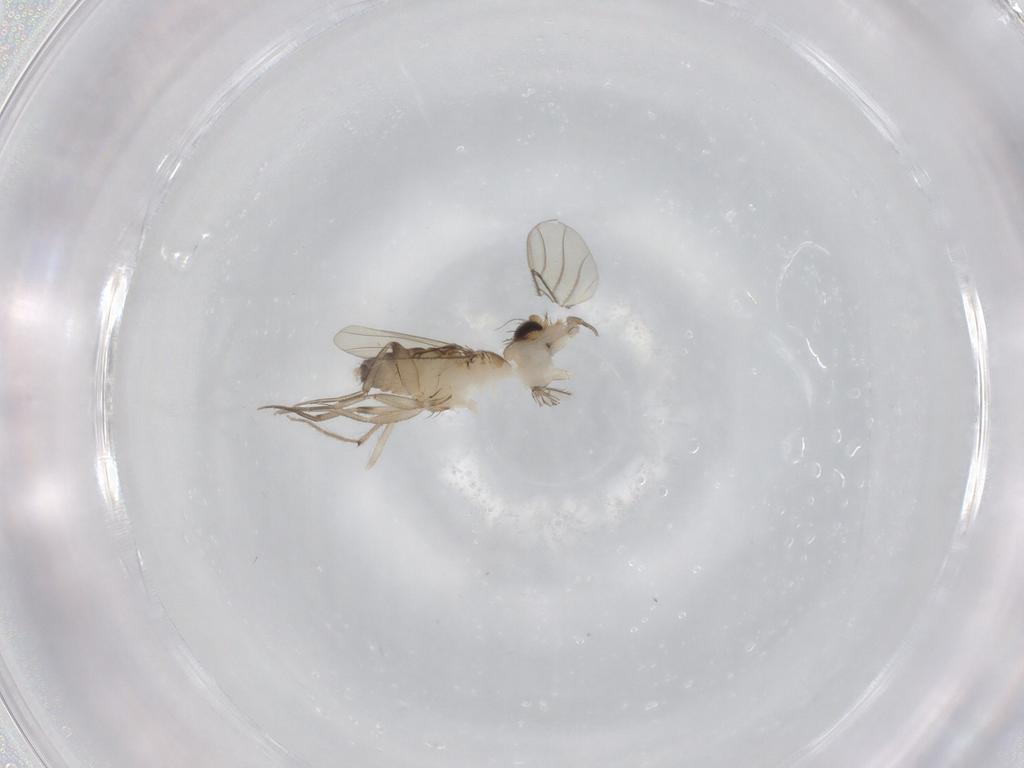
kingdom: Animalia
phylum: Arthropoda
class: Insecta
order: Diptera
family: Phoridae
